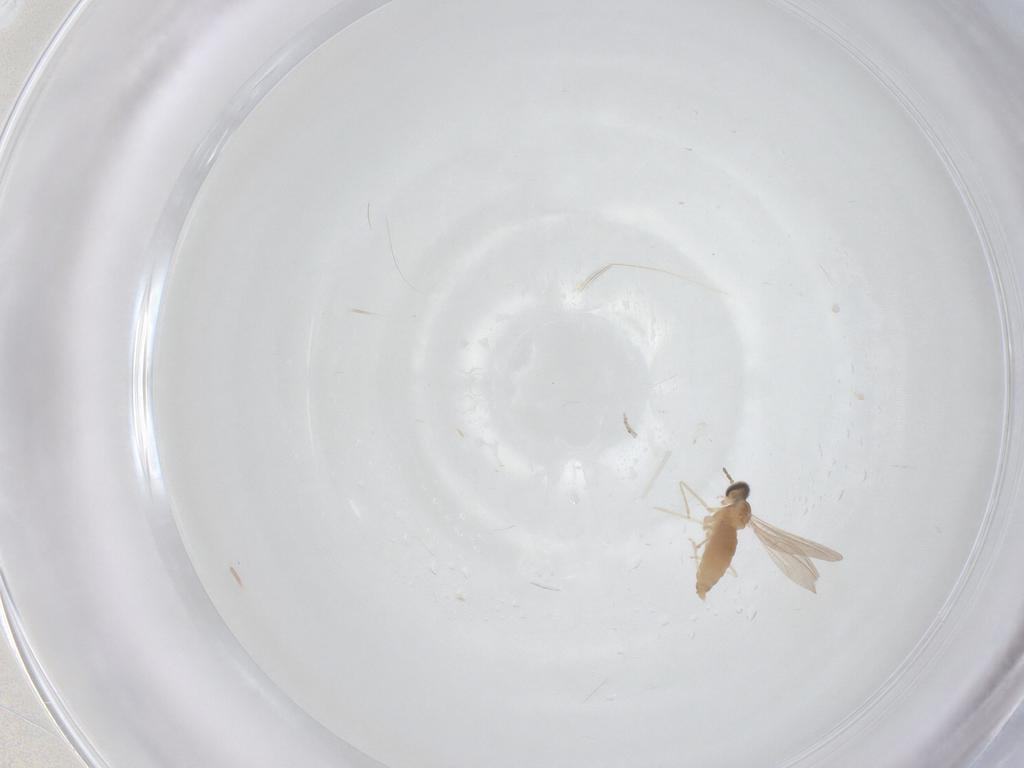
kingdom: Animalia
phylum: Arthropoda
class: Insecta
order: Diptera
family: Cecidomyiidae
